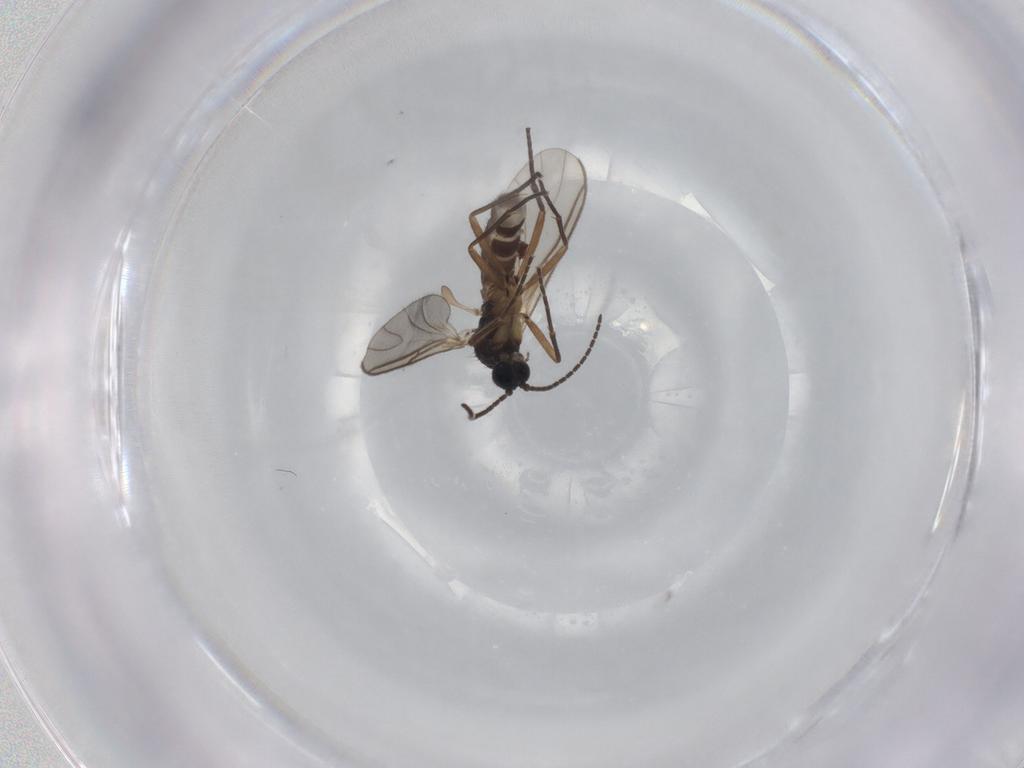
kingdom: Animalia
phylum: Arthropoda
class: Insecta
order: Diptera
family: Sciaridae
